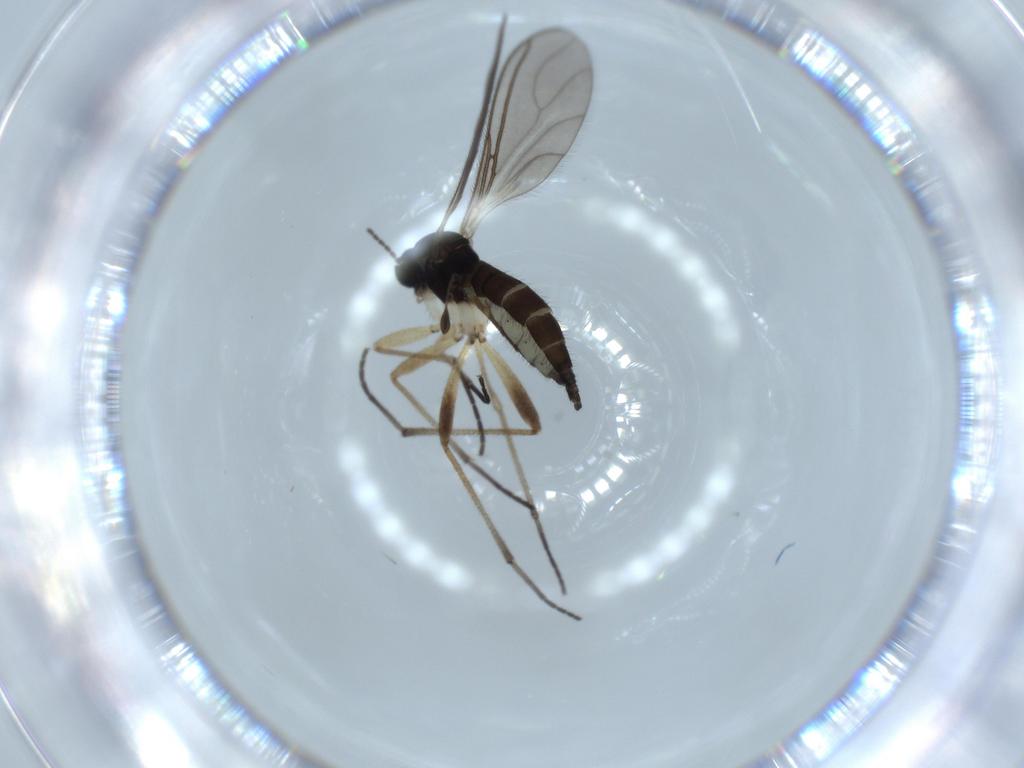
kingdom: Animalia
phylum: Arthropoda
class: Insecta
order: Diptera
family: Sciaridae
